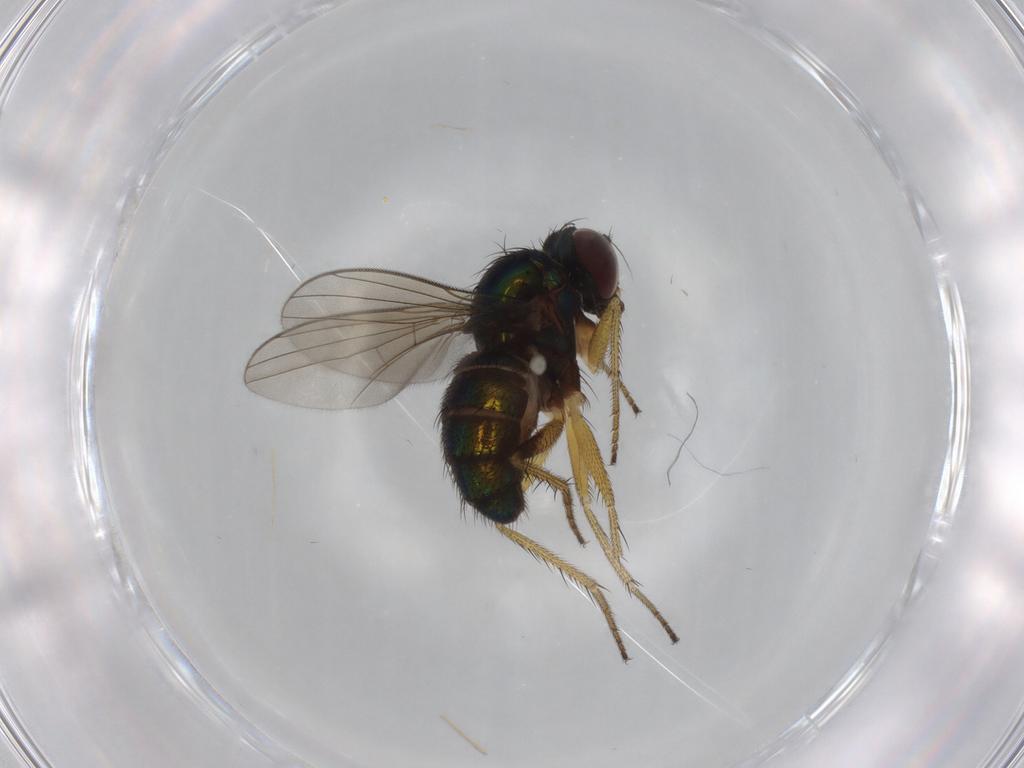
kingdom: Animalia
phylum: Arthropoda
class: Insecta
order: Diptera
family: Dolichopodidae
